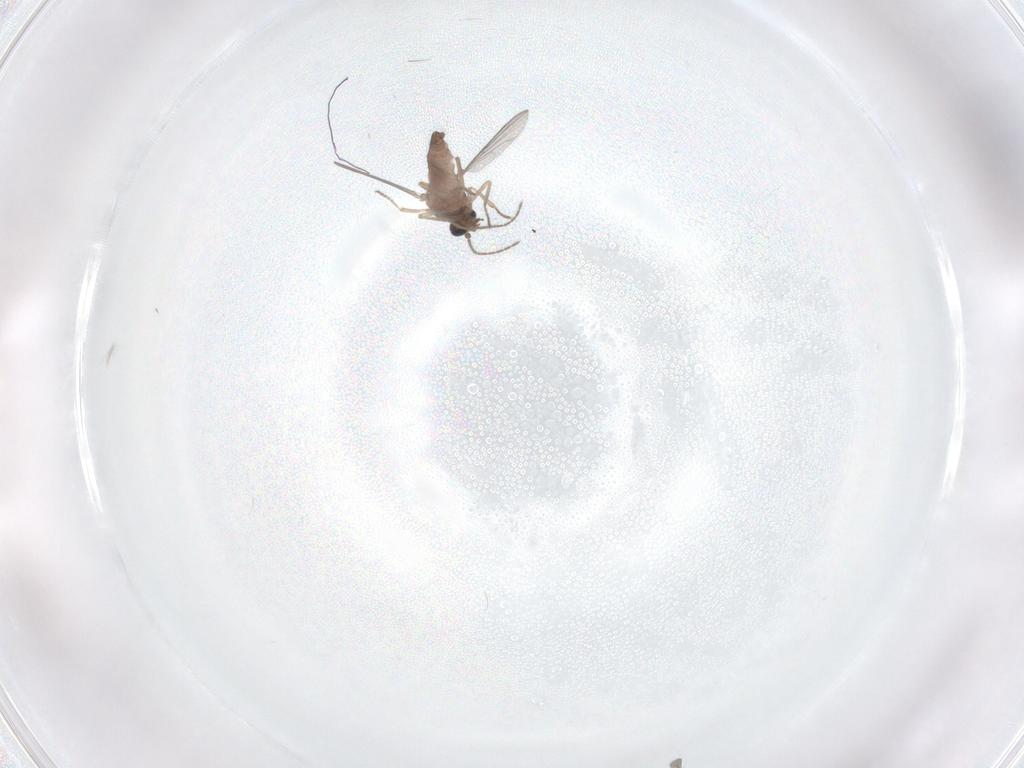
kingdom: Animalia
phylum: Arthropoda
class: Insecta
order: Diptera
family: Ceratopogonidae
